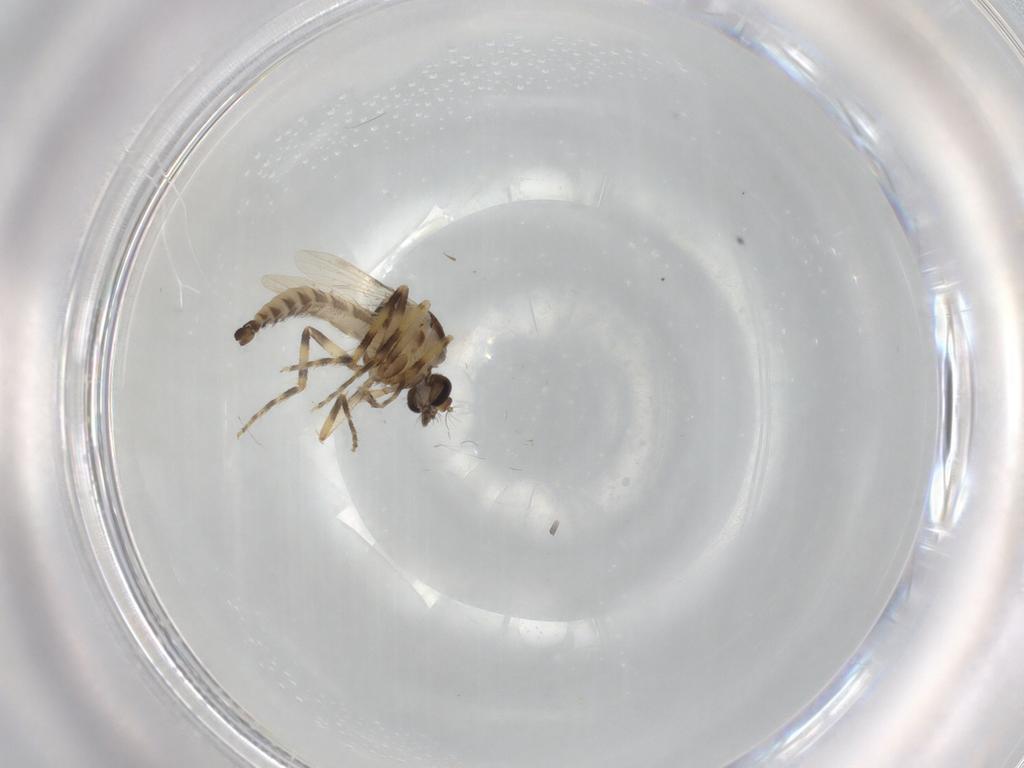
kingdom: Animalia
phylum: Arthropoda
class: Insecta
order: Diptera
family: Ceratopogonidae
